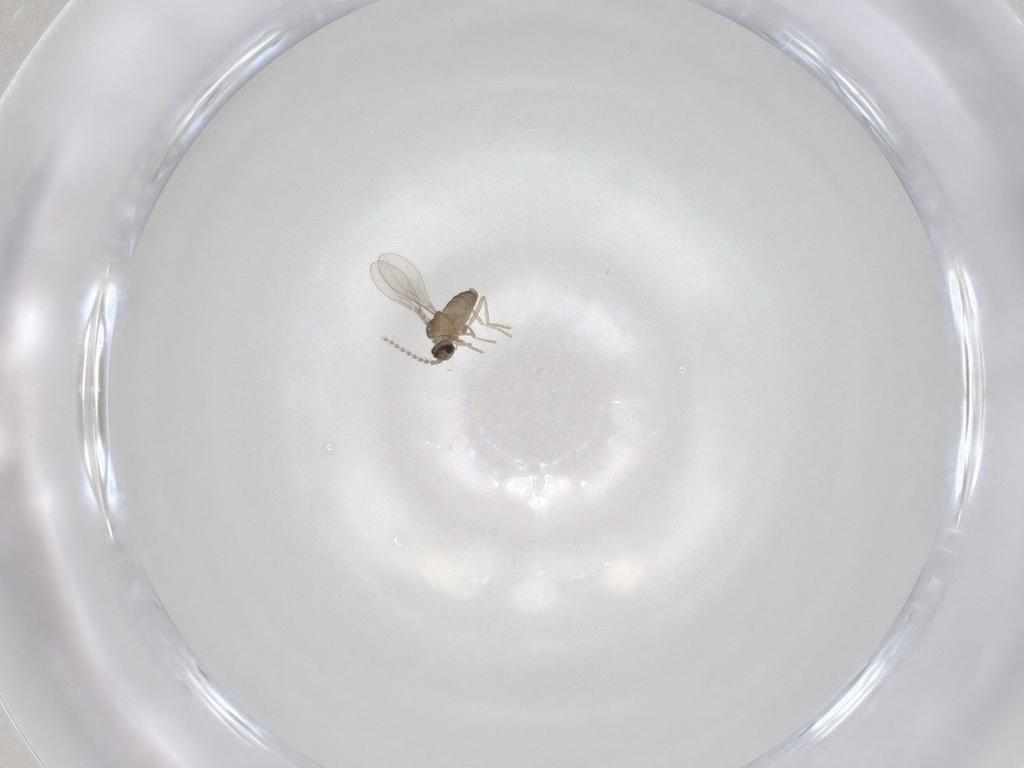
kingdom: Animalia
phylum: Arthropoda
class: Insecta
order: Diptera
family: Cecidomyiidae
